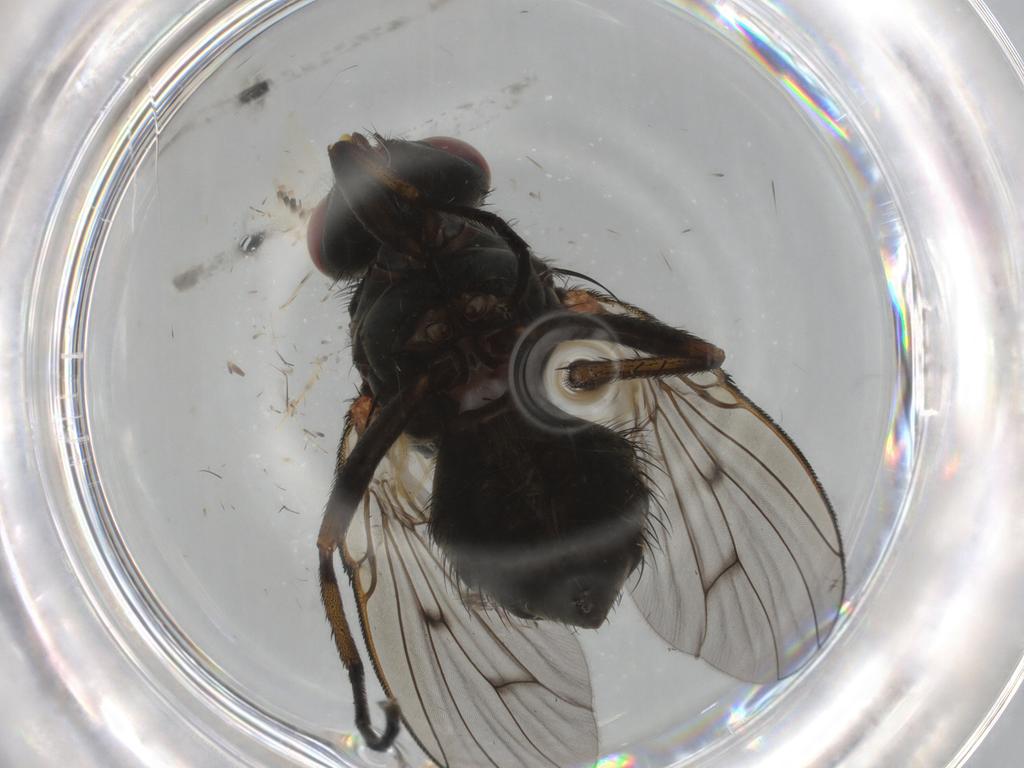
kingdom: Animalia
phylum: Arthropoda
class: Insecta
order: Diptera
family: Muscidae
